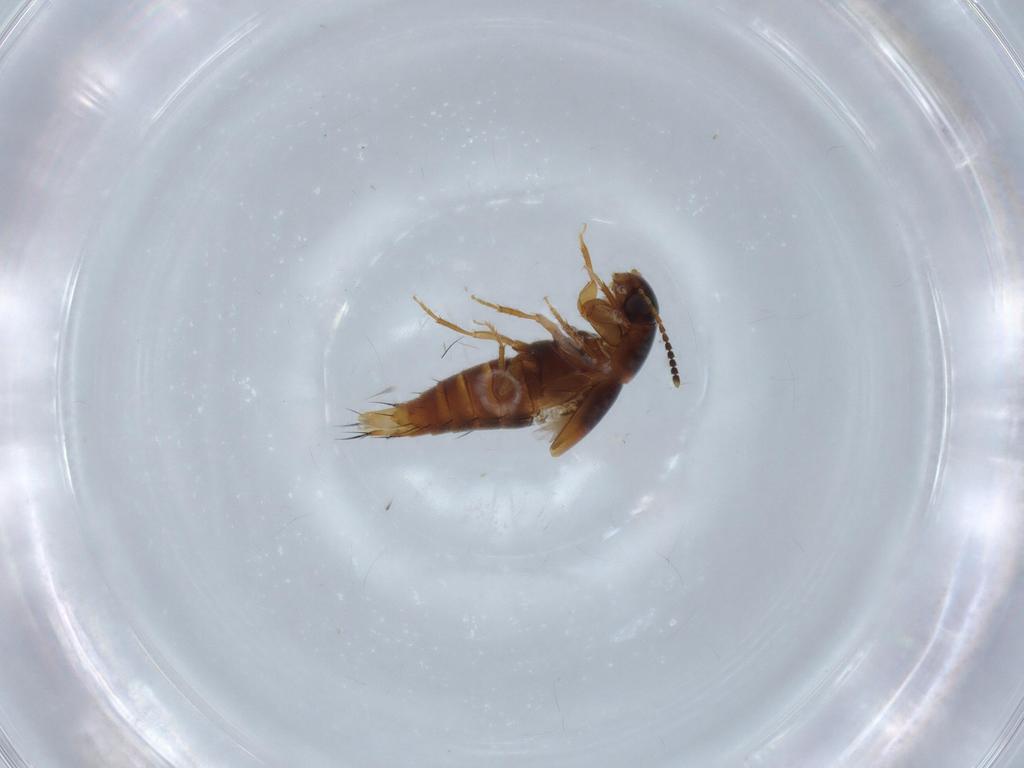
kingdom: Animalia
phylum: Arthropoda
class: Insecta
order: Coleoptera
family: Staphylinidae
